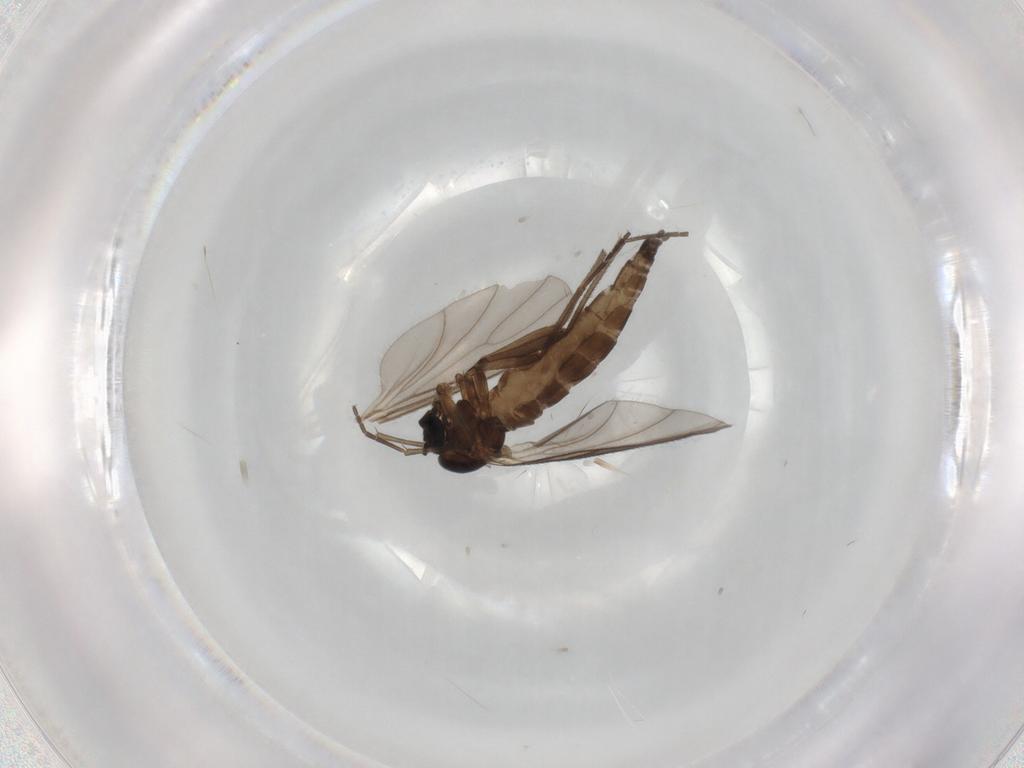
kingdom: Animalia
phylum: Arthropoda
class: Insecta
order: Diptera
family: Sciaridae
